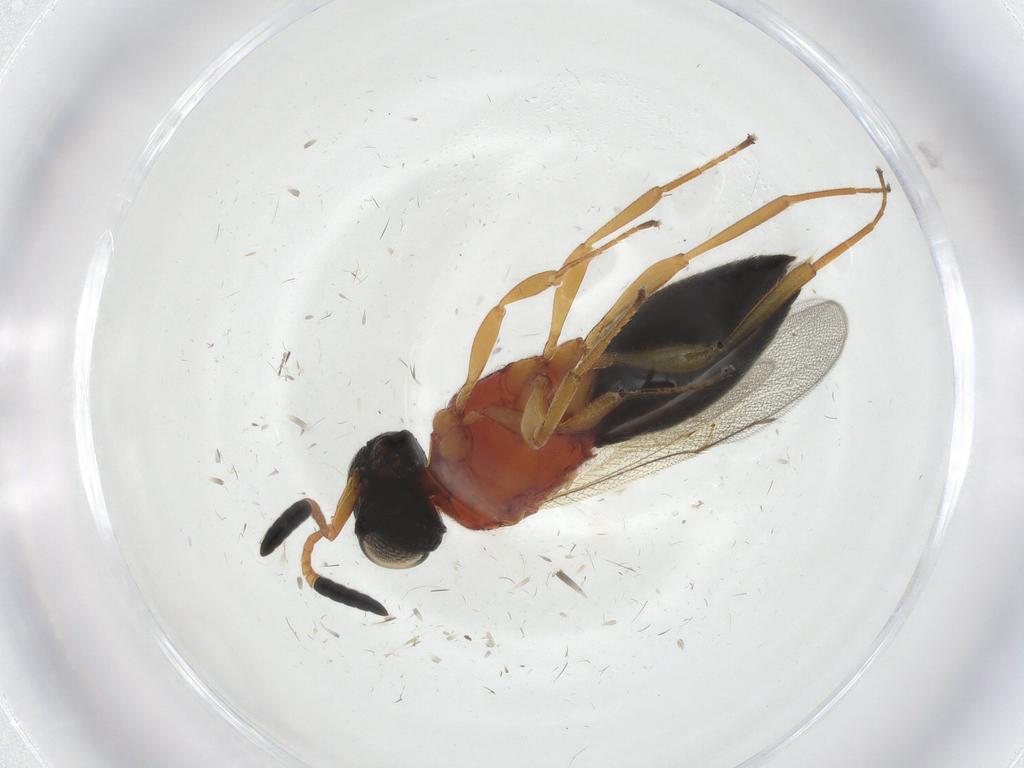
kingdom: Animalia
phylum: Arthropoda
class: Insecta
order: Hymenoptera
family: Scelionidae
